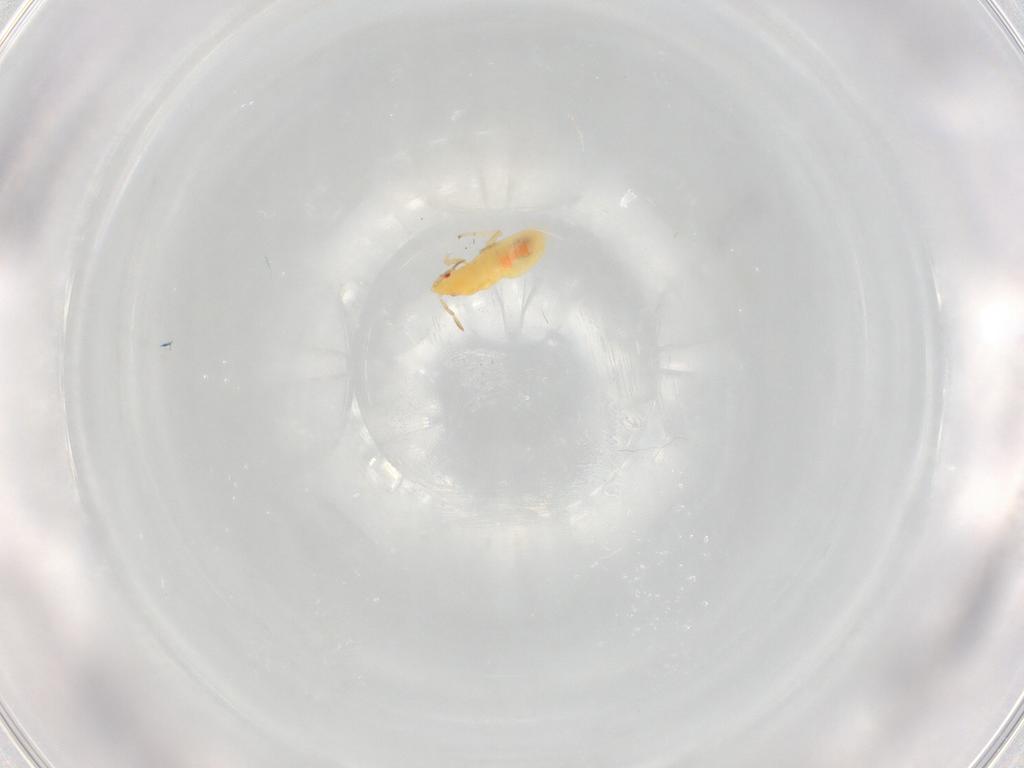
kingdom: Animalia
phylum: Arthropoda
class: Insecta
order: Hemiptera
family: Anthocoridae
